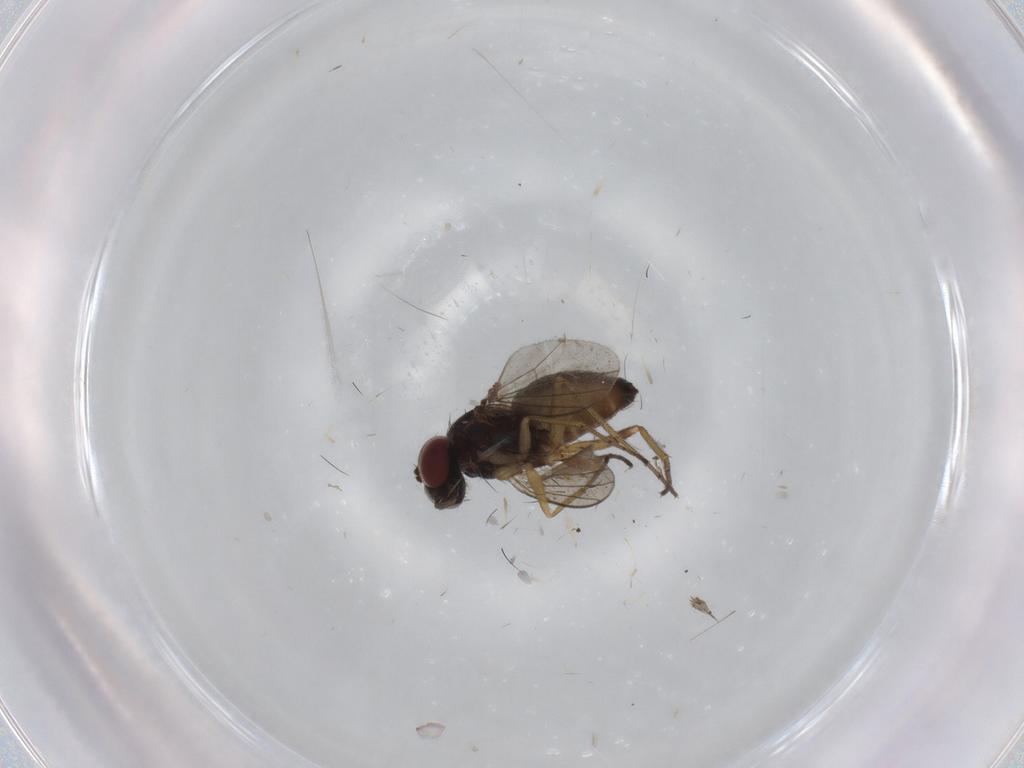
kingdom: Animalia
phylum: Arthropoda
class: Insecta
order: Diptera
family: Dolichopodidae
